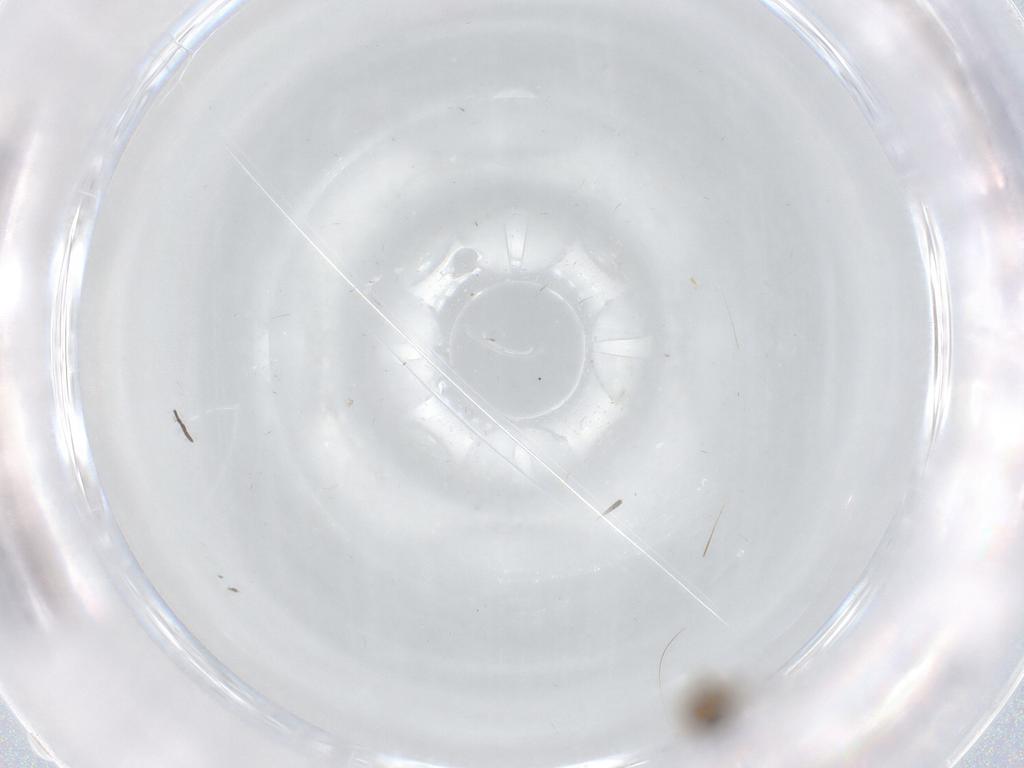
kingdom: Animalia
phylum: Arthropoda
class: Insecta
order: Diptera
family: Ceratopogonidae
